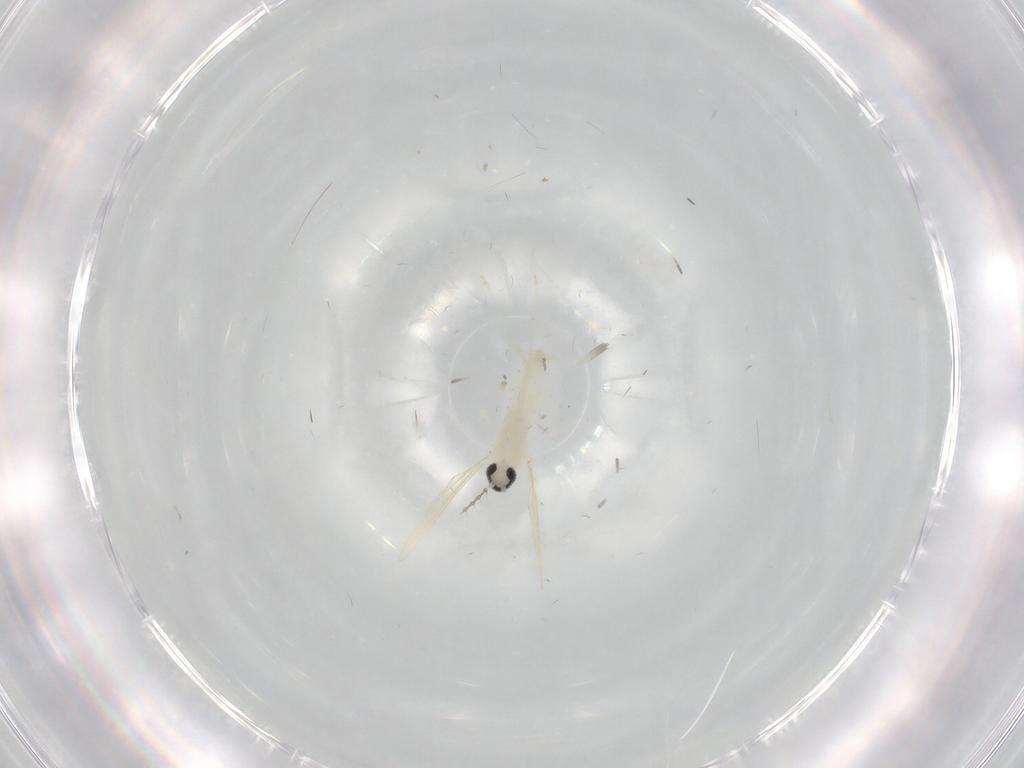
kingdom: Animalia
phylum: Arthropoda
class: Insecta
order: Diptera
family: Cecidomyiidae
